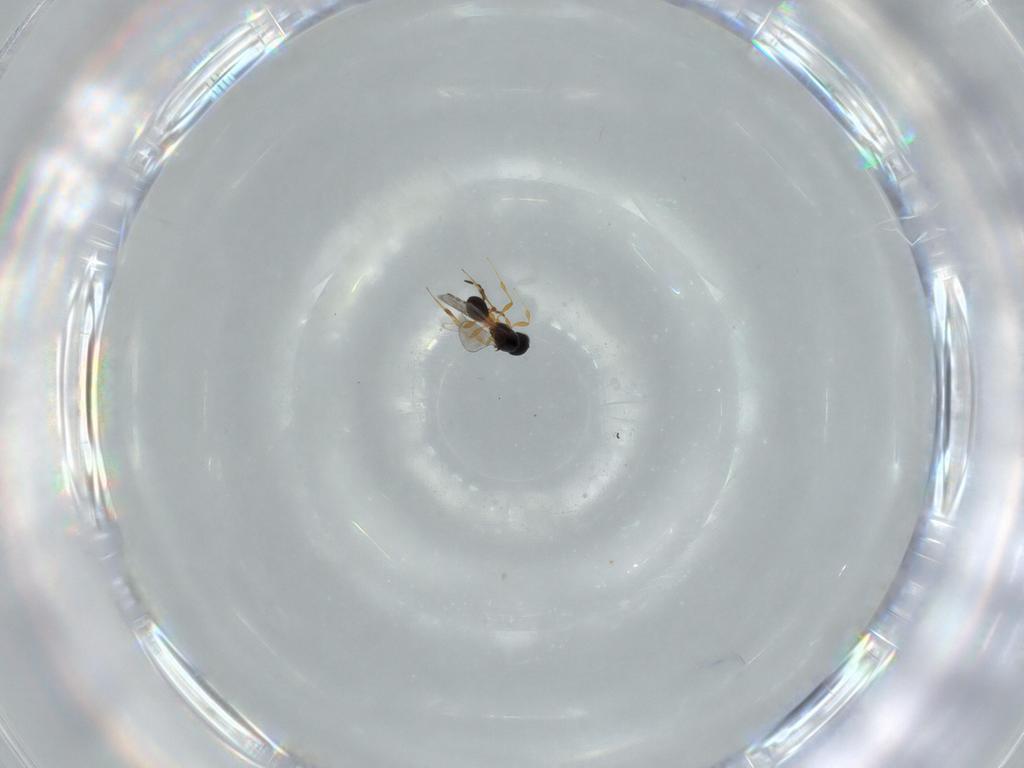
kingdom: Animalia
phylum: Arthropoda
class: Insecta
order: Hymenoptera
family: Platygastridae
